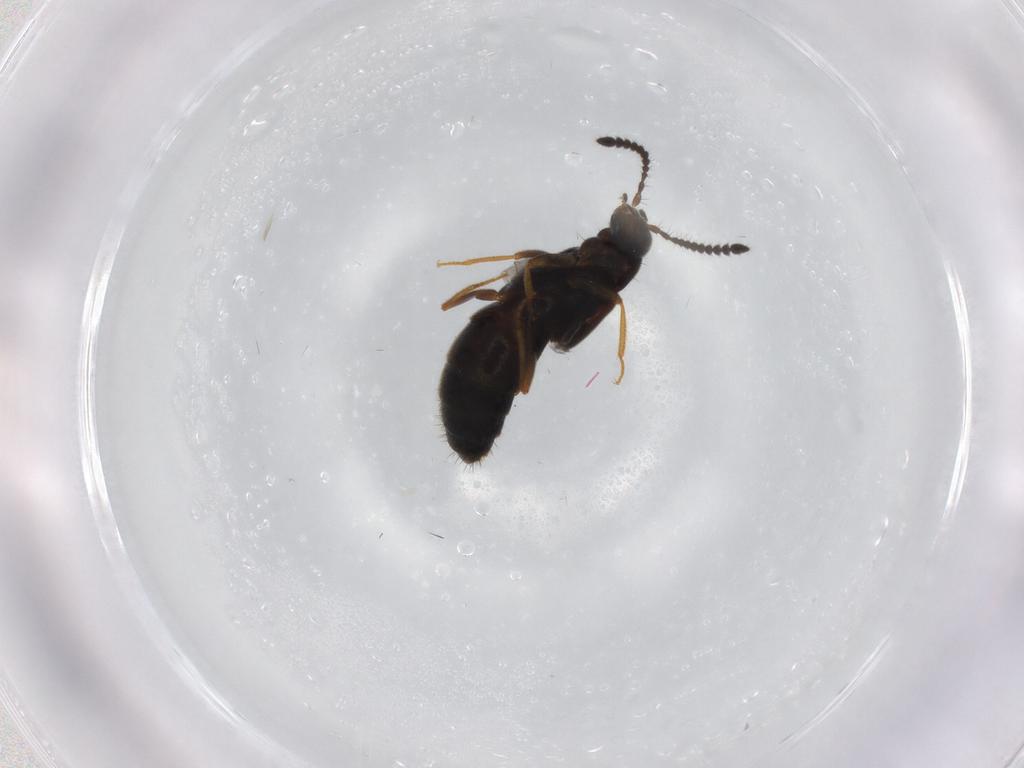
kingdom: Animalia
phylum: Arthropoda
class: Insecta
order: Coleoptera
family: Staphylinidae
